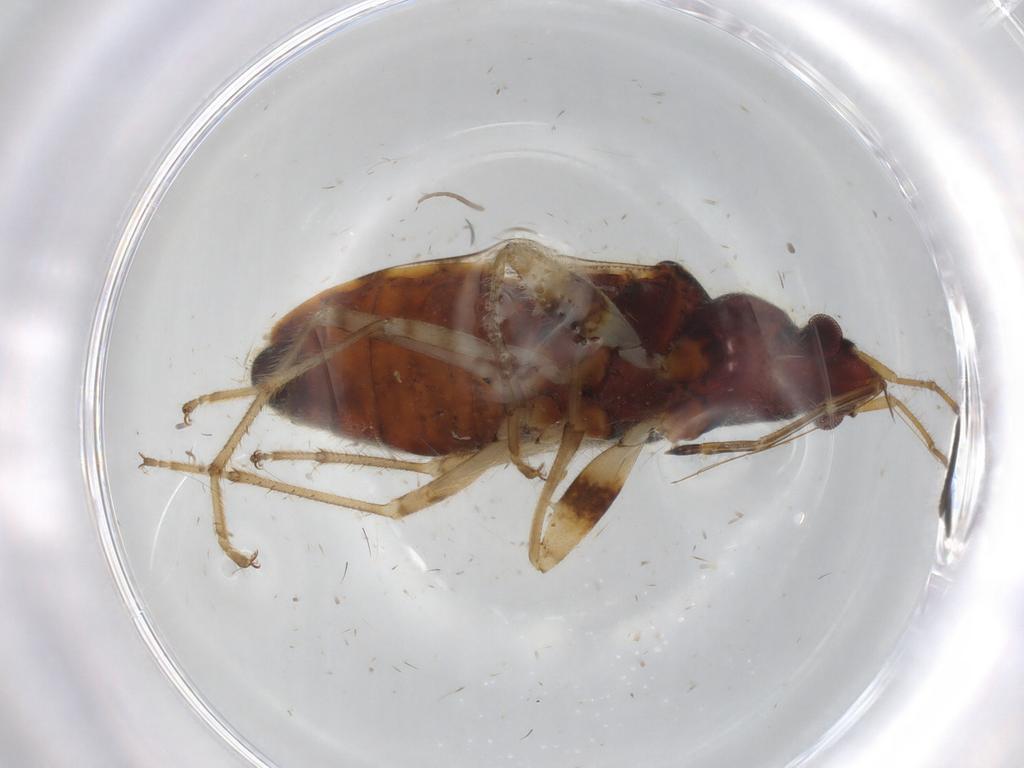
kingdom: Animalia
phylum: Arthropoda
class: Insecta
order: Hemiptera
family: Rhyparochromidae
